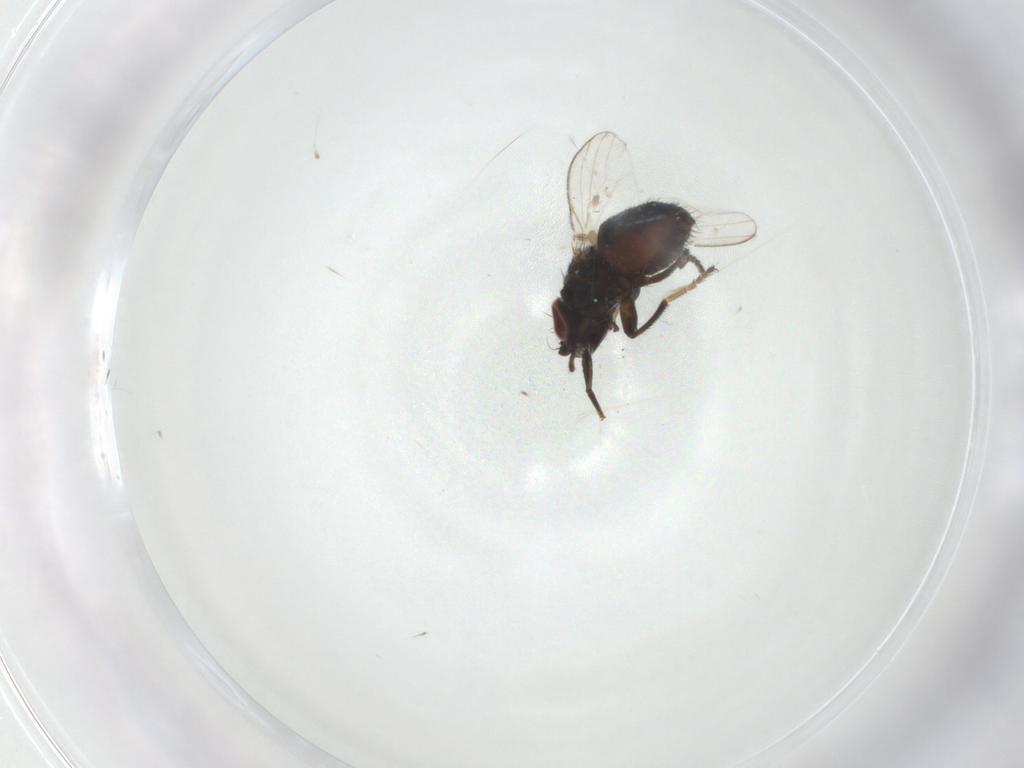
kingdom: Animalia
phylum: Arthropoda
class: Insecta
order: Diptera
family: Milichiidae
